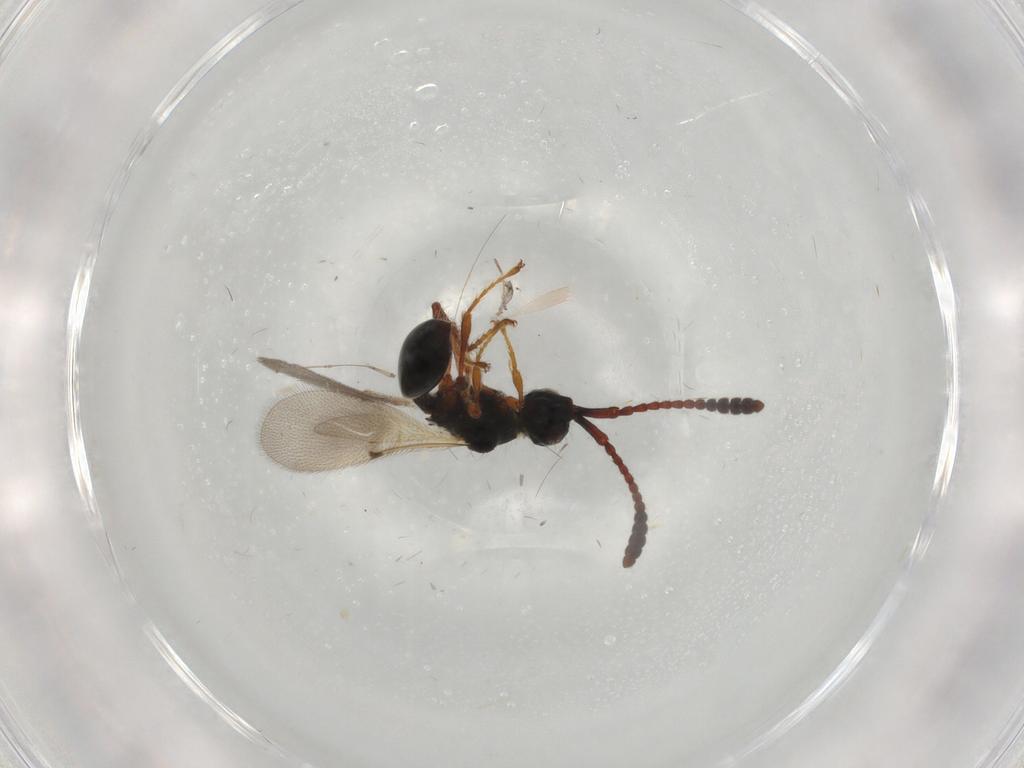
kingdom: Animalia
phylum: Arthropoda
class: Insecta
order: Hymenoptera
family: Diapriidae
